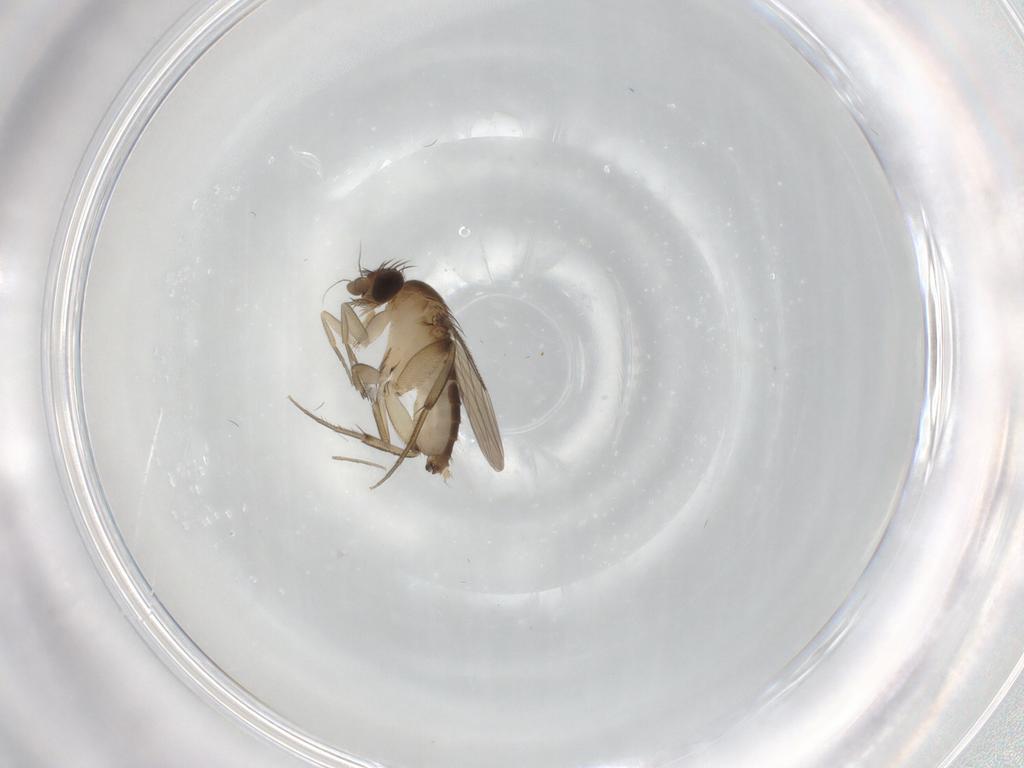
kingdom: Animalia
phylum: Arthropoda
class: Insecta
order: Diptera
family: Phoridae
